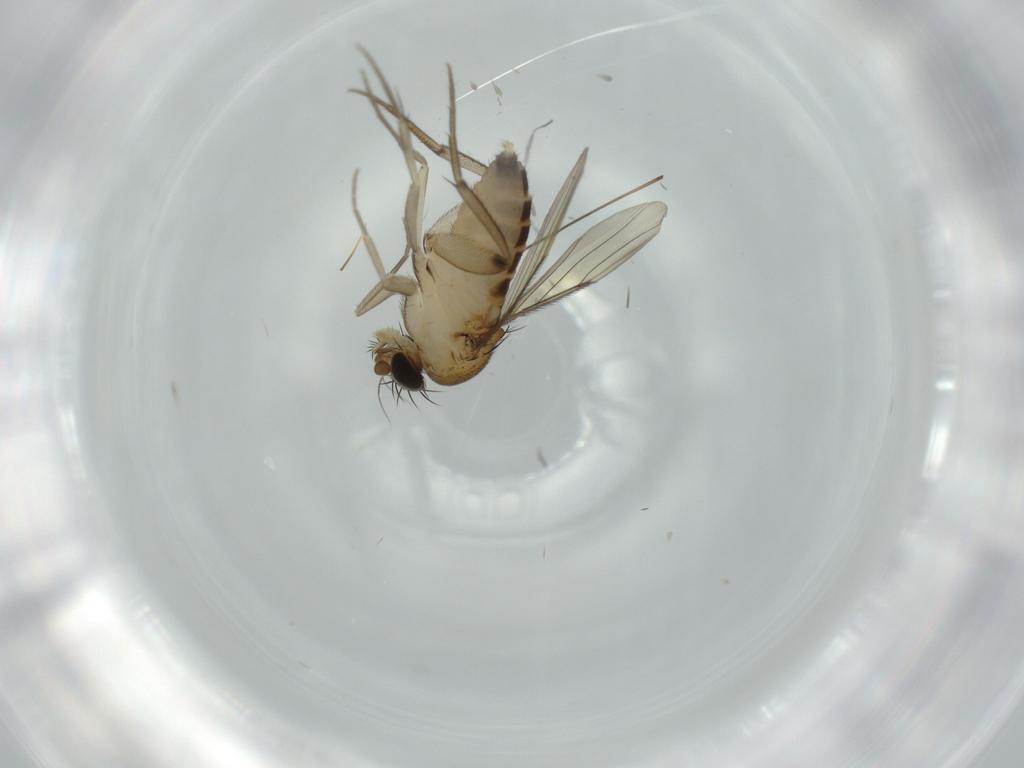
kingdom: Animalia
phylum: Arthropoda
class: Insecta
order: Diptera
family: Phoridae
